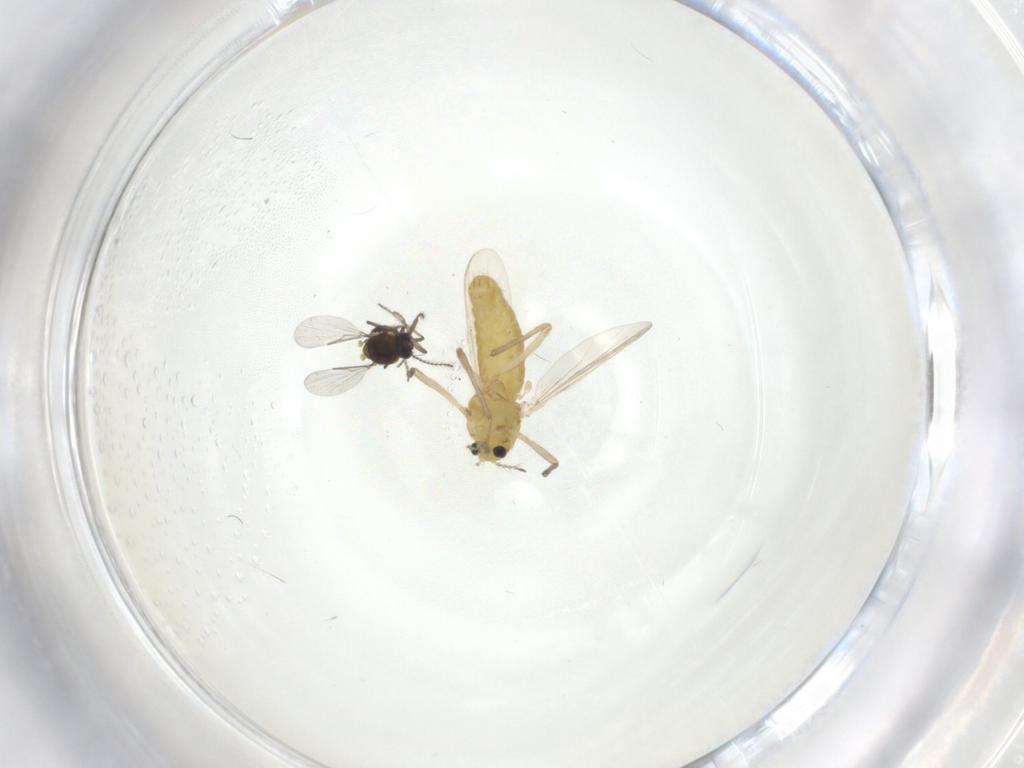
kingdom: Animalia
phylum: Arthropoda
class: Insecta
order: Diptera
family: Ceratopogonidae
